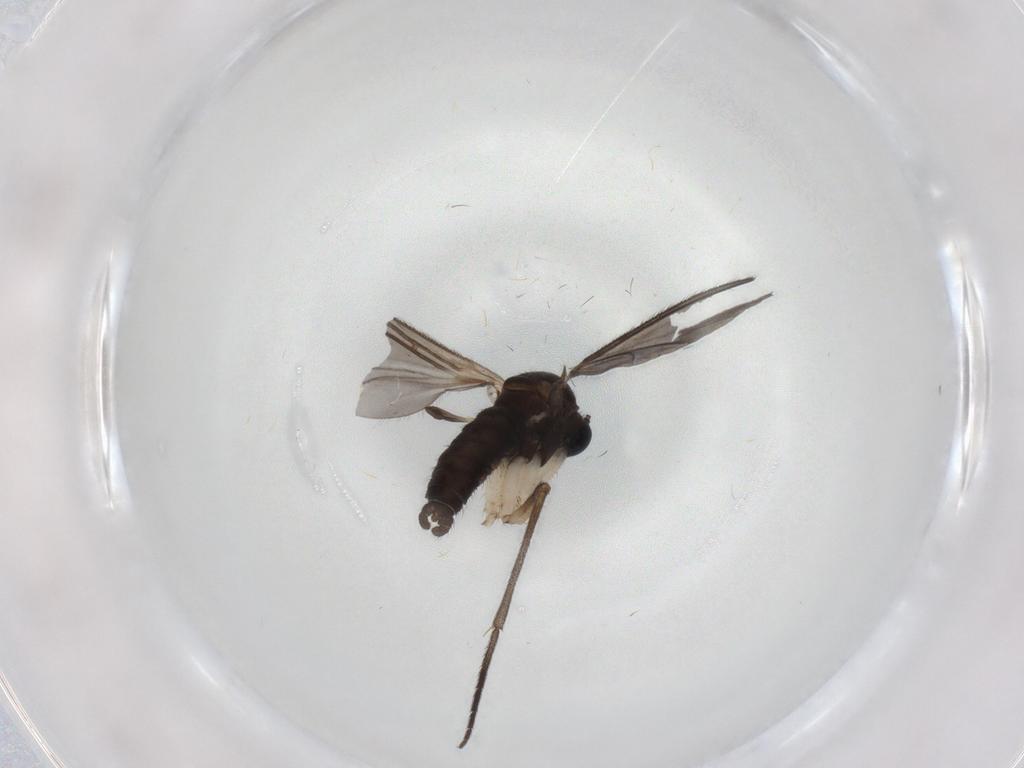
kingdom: Animalia
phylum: Arthropoda
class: Insecta
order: Diptera
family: Sciaridae
